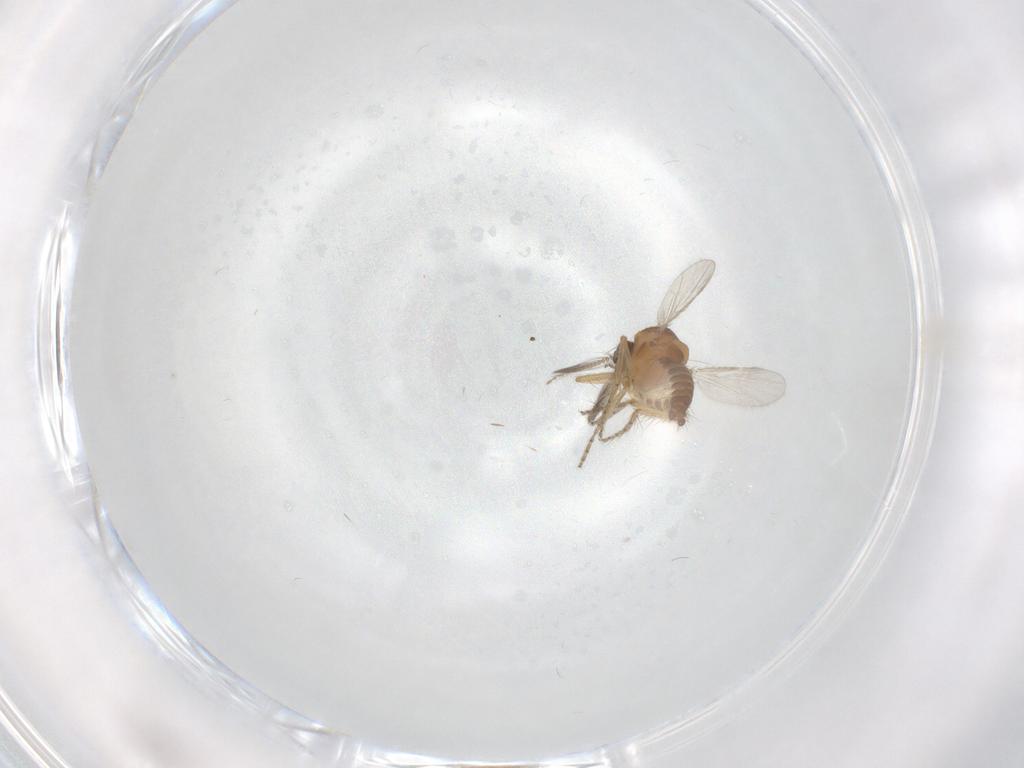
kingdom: Animalia
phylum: Arthropoda
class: Insecta
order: Diptera
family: Ceratopogonidae
